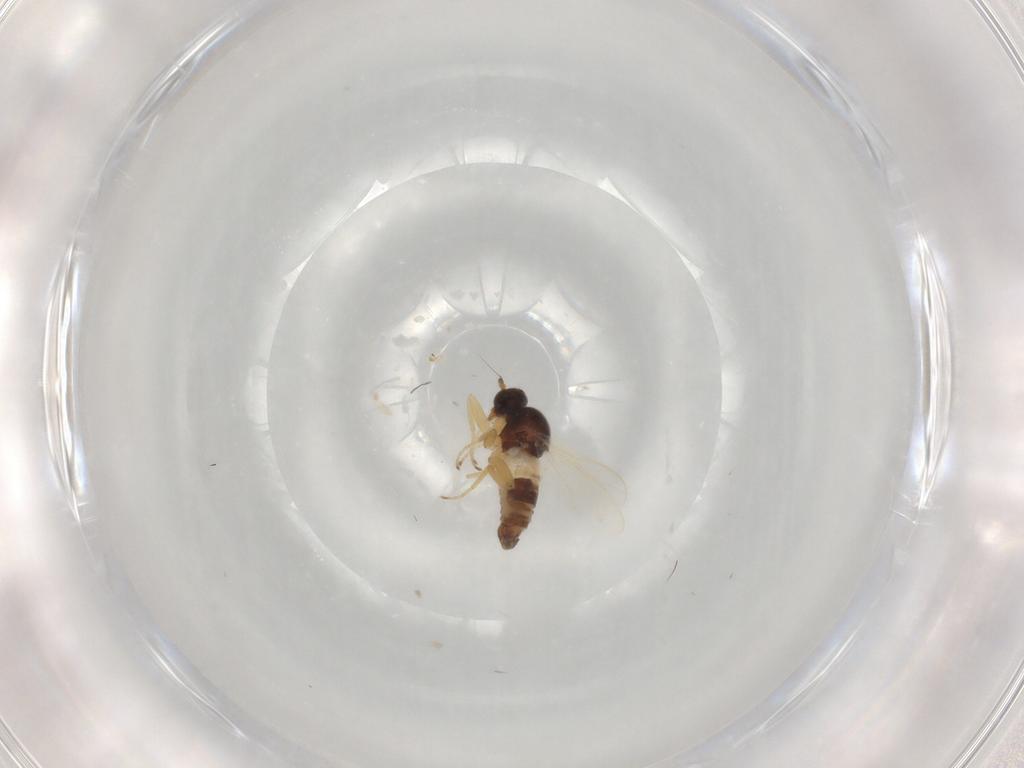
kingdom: Animalia
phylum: Arthropoda
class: Insecta
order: Diptera
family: Hybotidae
